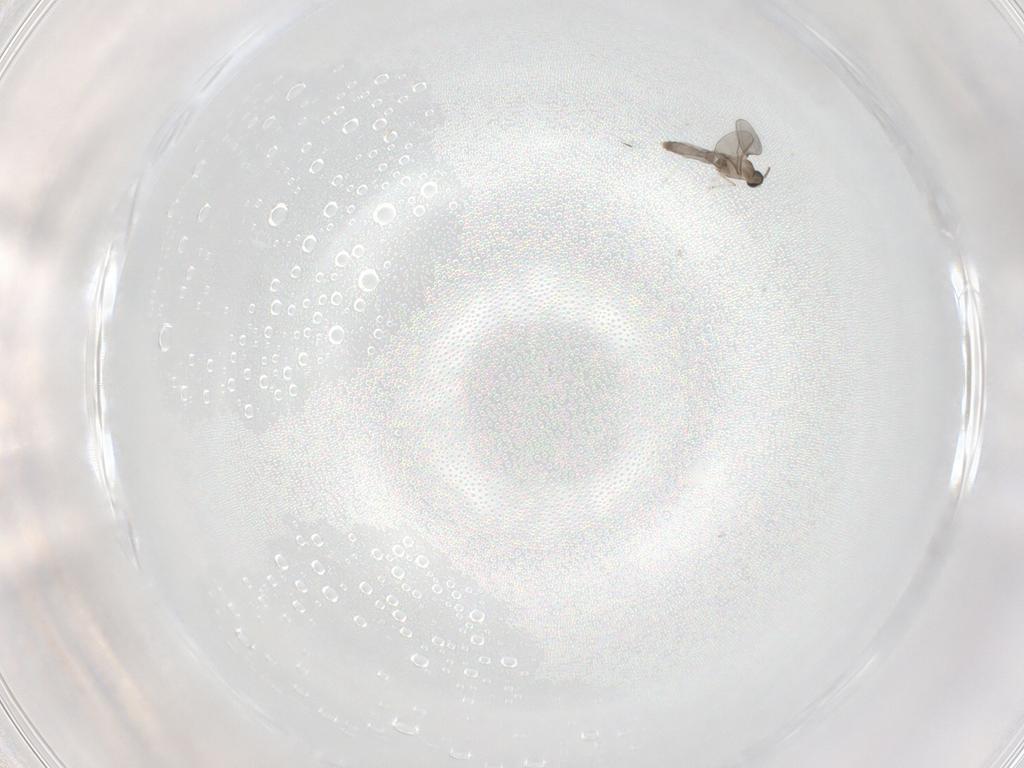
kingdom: Animalia
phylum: Arthropoda
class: Insecta
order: Diptera
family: Cecidomyiidae
